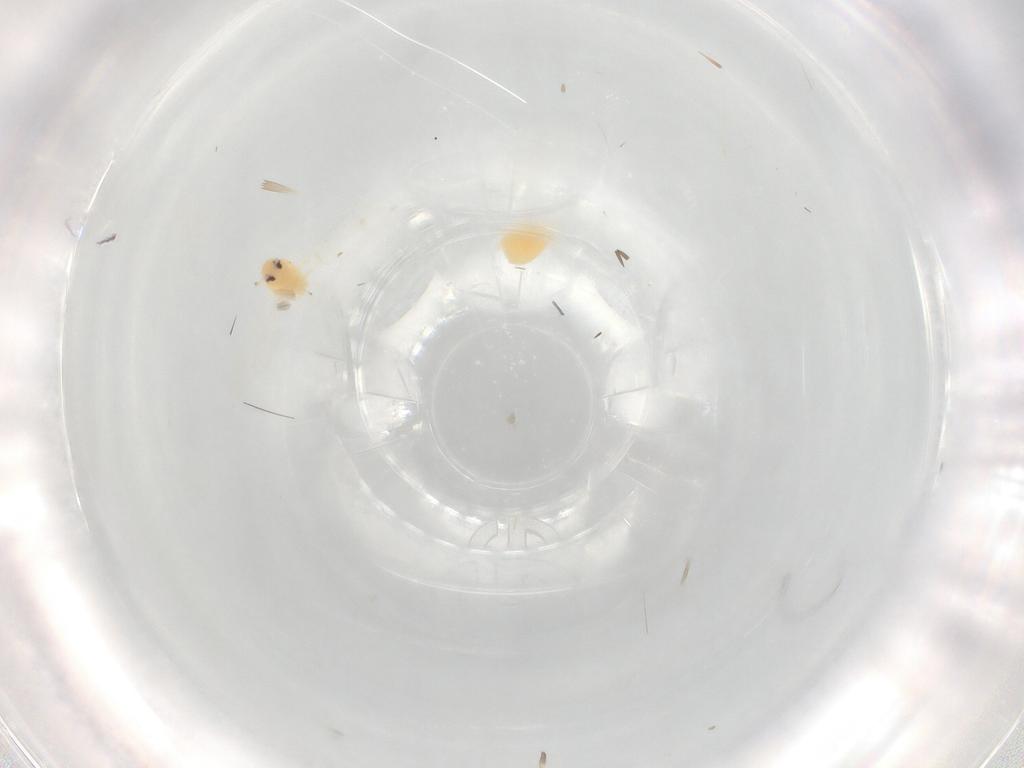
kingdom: Animalia
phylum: Arthropoda
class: Insecta
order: Hemiptera
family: Aleyrodidae
